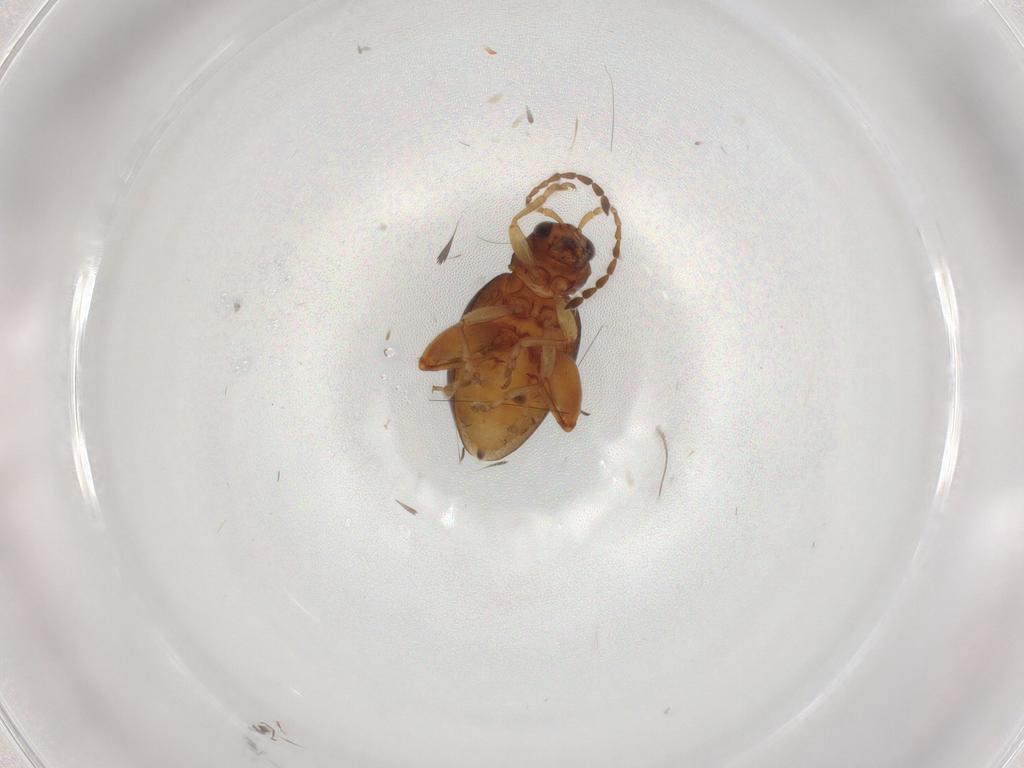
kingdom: Animalia
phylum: Arthropoda
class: Insecta
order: Coleoptera
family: Chrysomelidae
